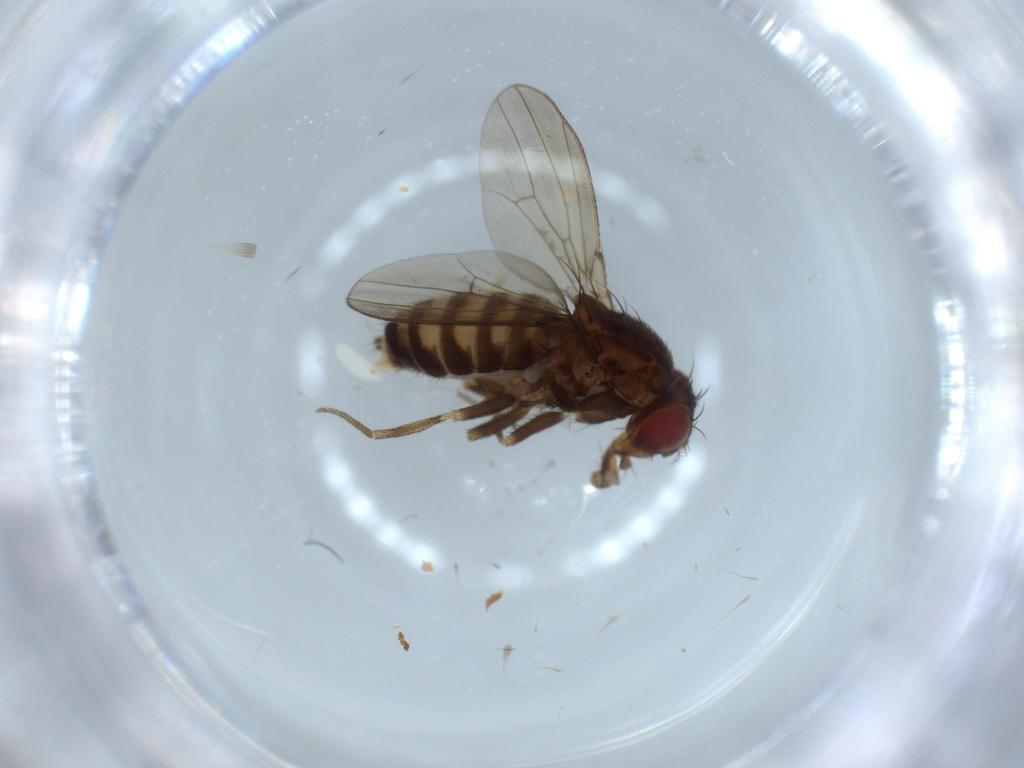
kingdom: Animalia
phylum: Arthropoda
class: Insecta
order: Diptera
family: Drosophilidae
